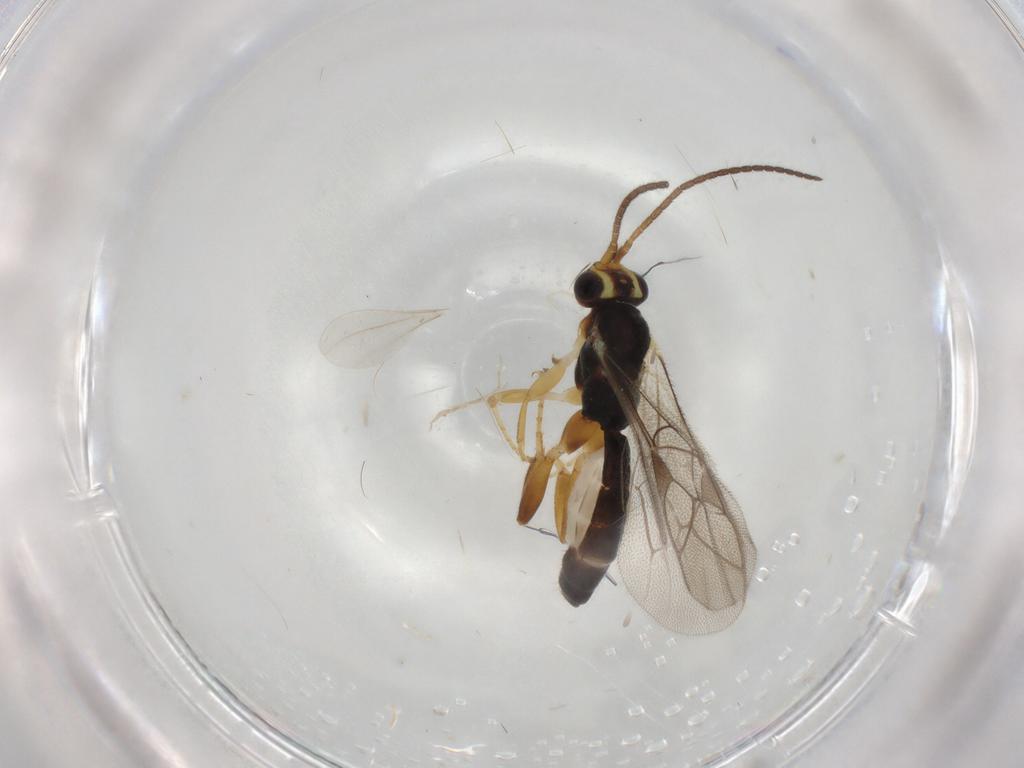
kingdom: Animalia
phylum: Arthropoda
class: Insecta
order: Hymenoptera
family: Ichneumonidae
